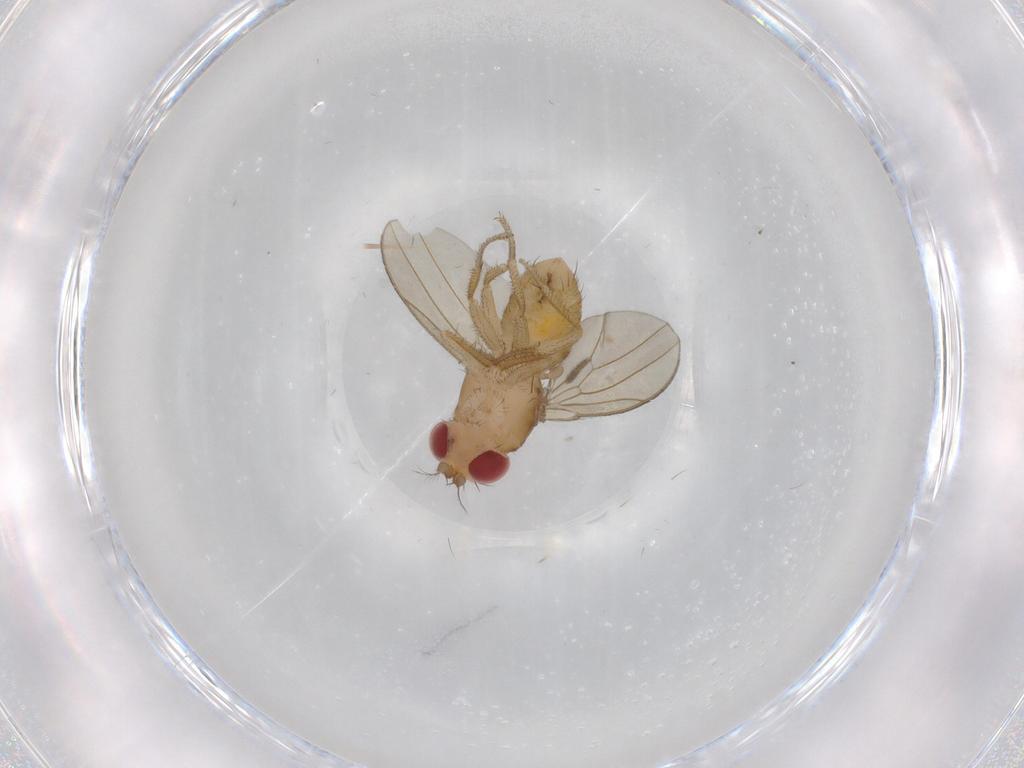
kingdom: Animalia
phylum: Arthropoda
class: Insecta
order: Diptera
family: Drosophilidae
